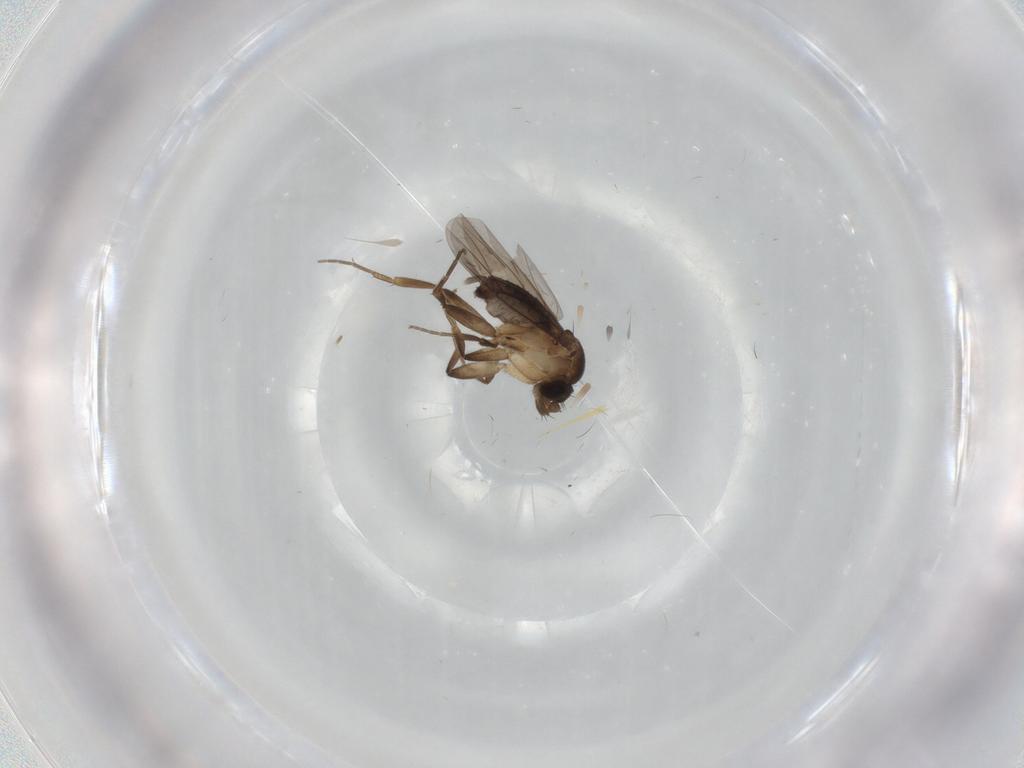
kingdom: Animalia
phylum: Arthropoda
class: Insecta
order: Diptera
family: Phoridae
